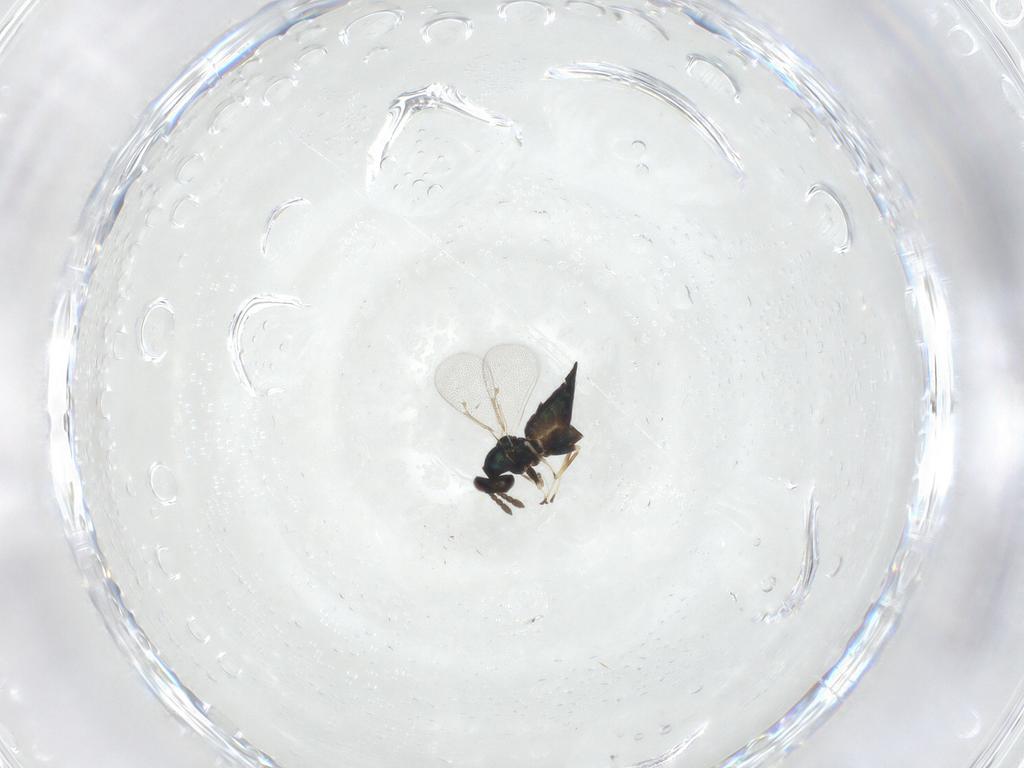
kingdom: Animalia
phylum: Arthropoda
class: Insecta
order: Hymenoptera
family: Eulophidae
